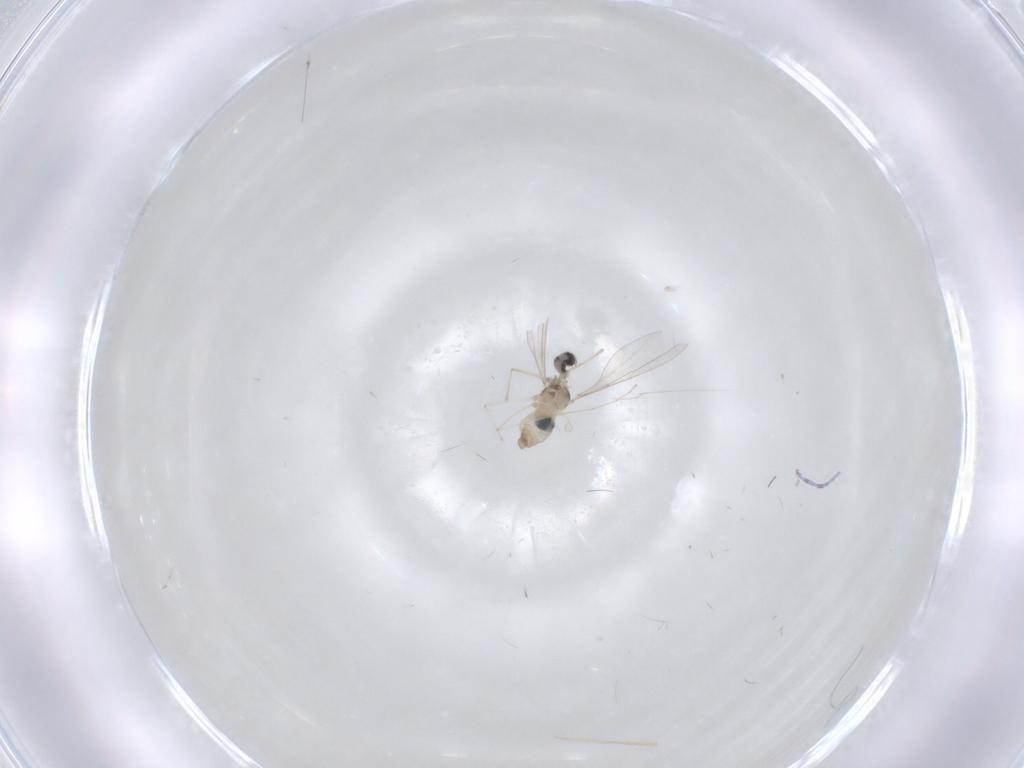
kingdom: Animalia
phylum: Arthropoda
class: Insecta
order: Diptera
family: Cecidomyiidae
